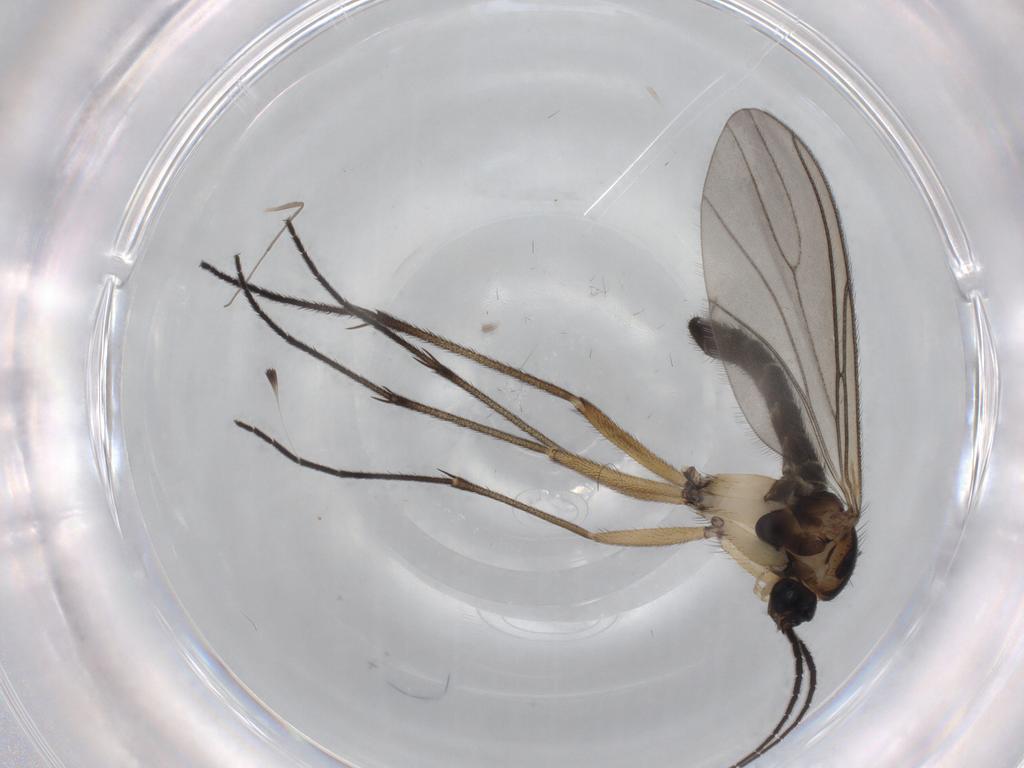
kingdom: Animalia
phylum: Arthropoda
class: Insecta
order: Diptera
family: Sciaridae
